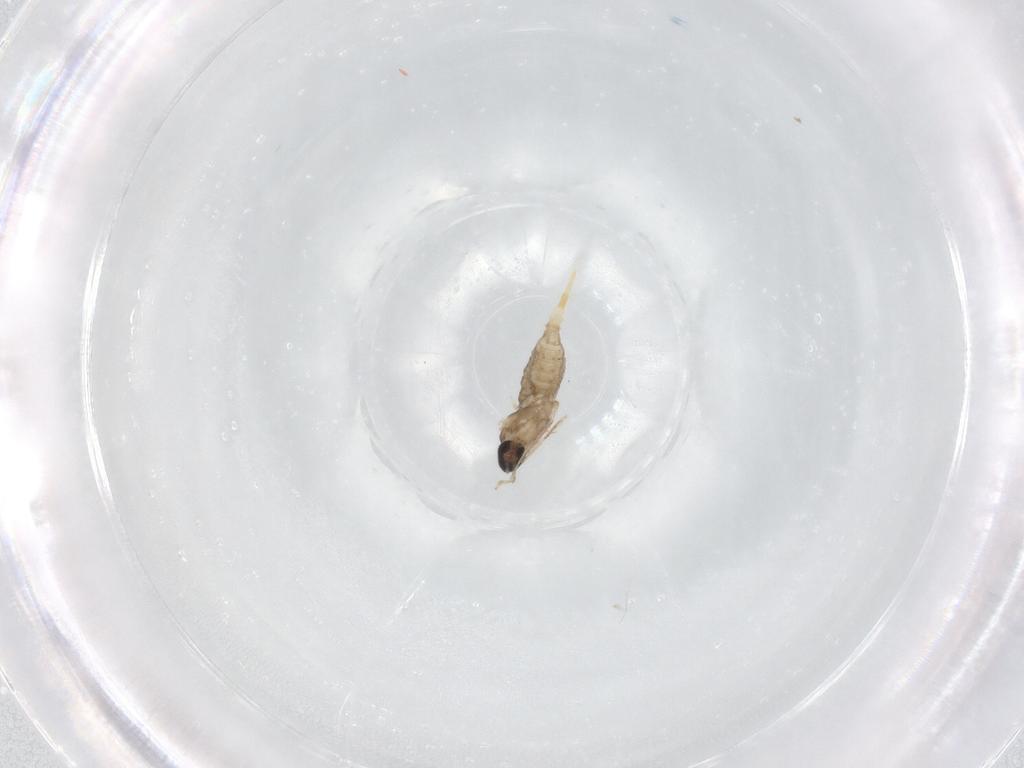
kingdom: Animalia
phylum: Arthropoda
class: Insecta
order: Diptera
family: Cecidomyiidae
